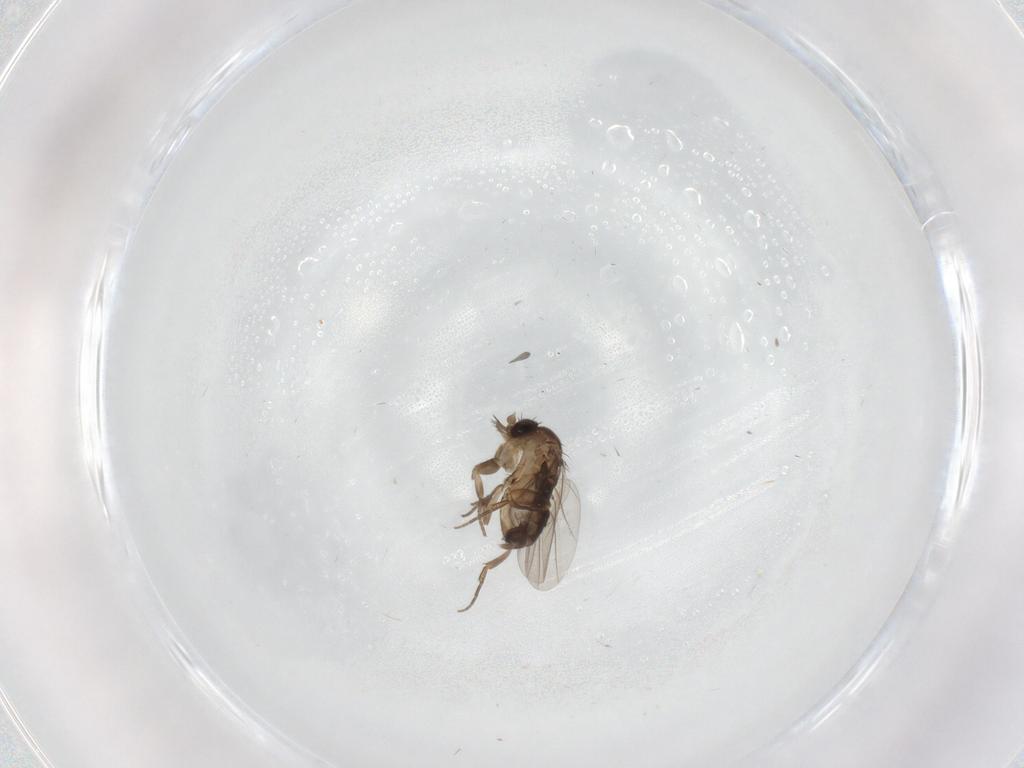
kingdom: Animalia
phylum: Arthropoda
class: Insecta
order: Diptera
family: Phoridae
